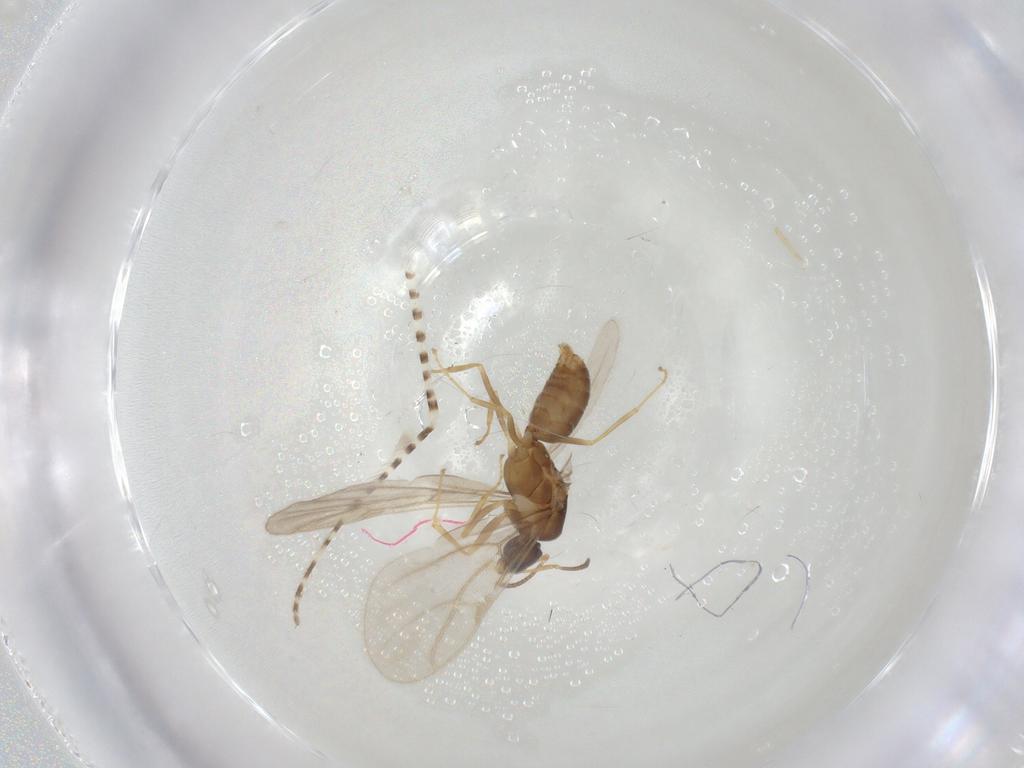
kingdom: Animalia
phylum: Arthropoda
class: Insecta
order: Hymenoptera
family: Formicidae
